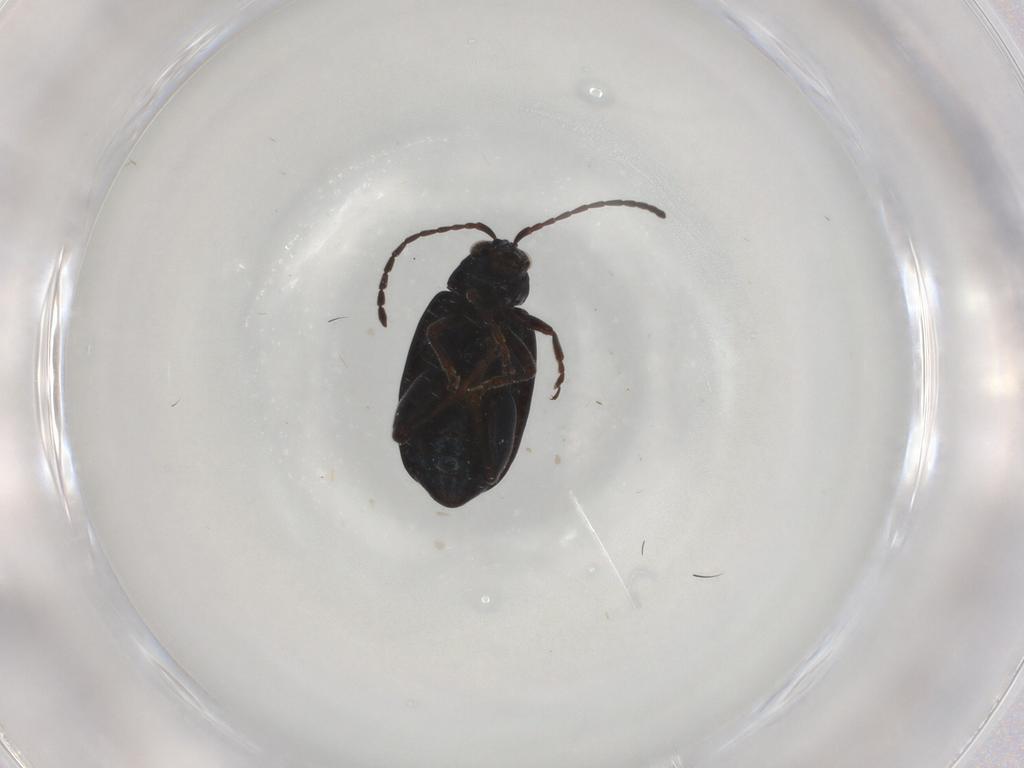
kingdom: Animalia
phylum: Arthropoda
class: Insecta
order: Coleoptera
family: Chrysomelidae
